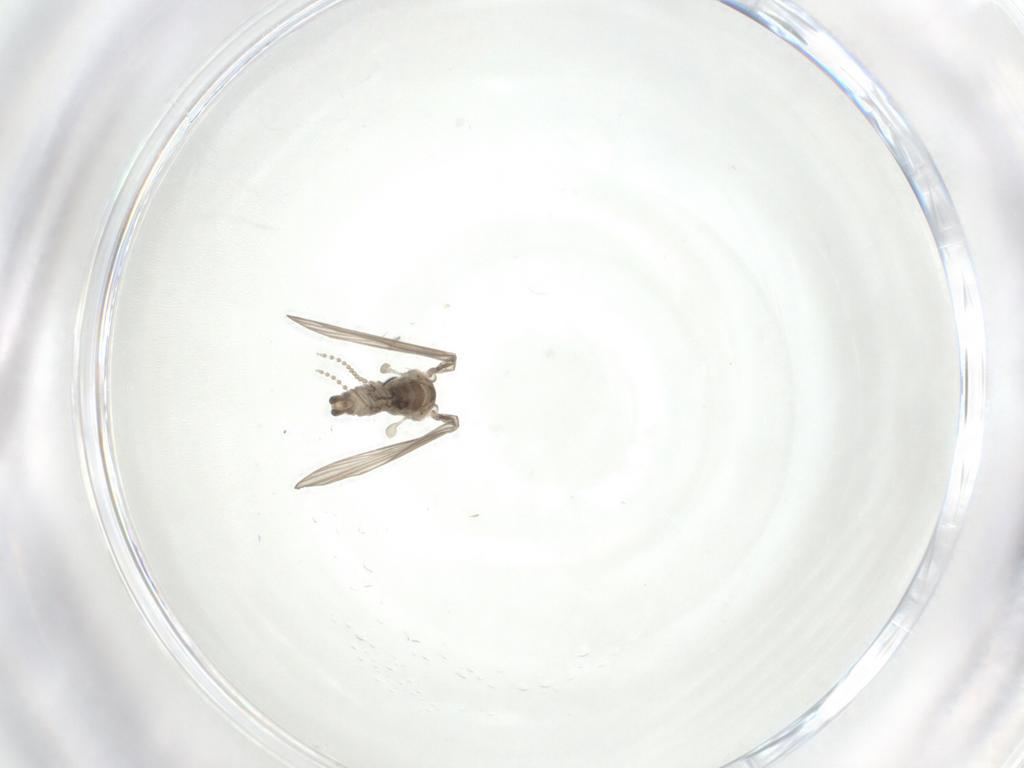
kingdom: Animalia
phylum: Arthropoda
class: Insecta
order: Diptera
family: Psychodidae
